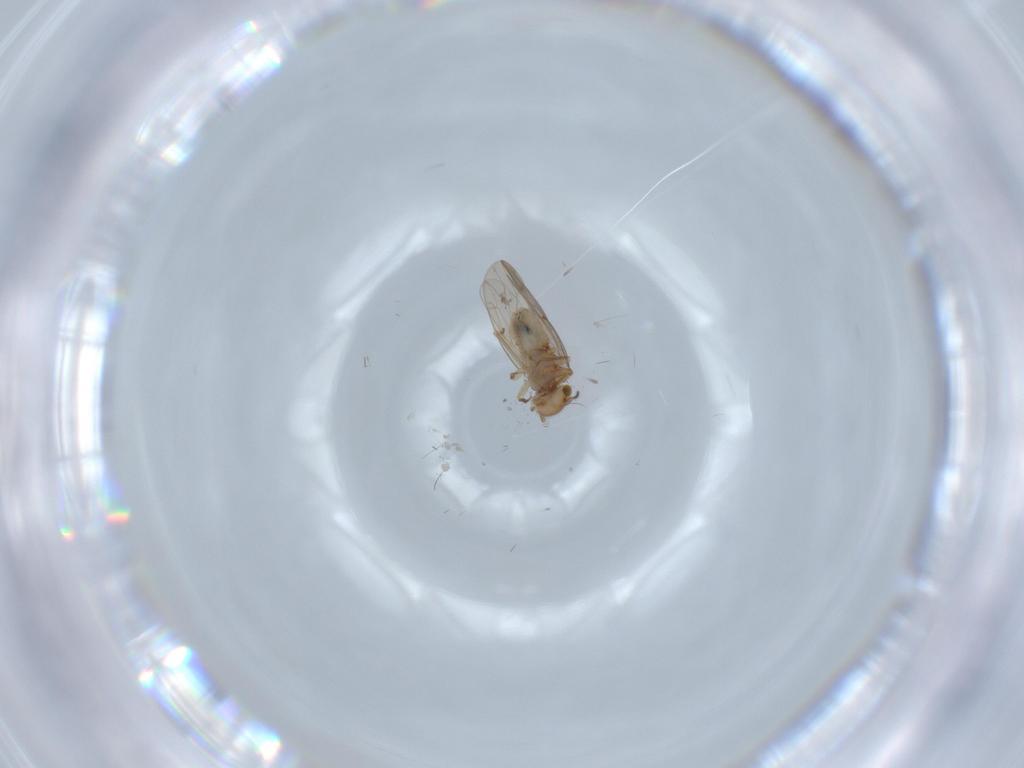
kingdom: Animalia
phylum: Arthropoda
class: Insecta
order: Psocodea
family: Ectopsocidae
